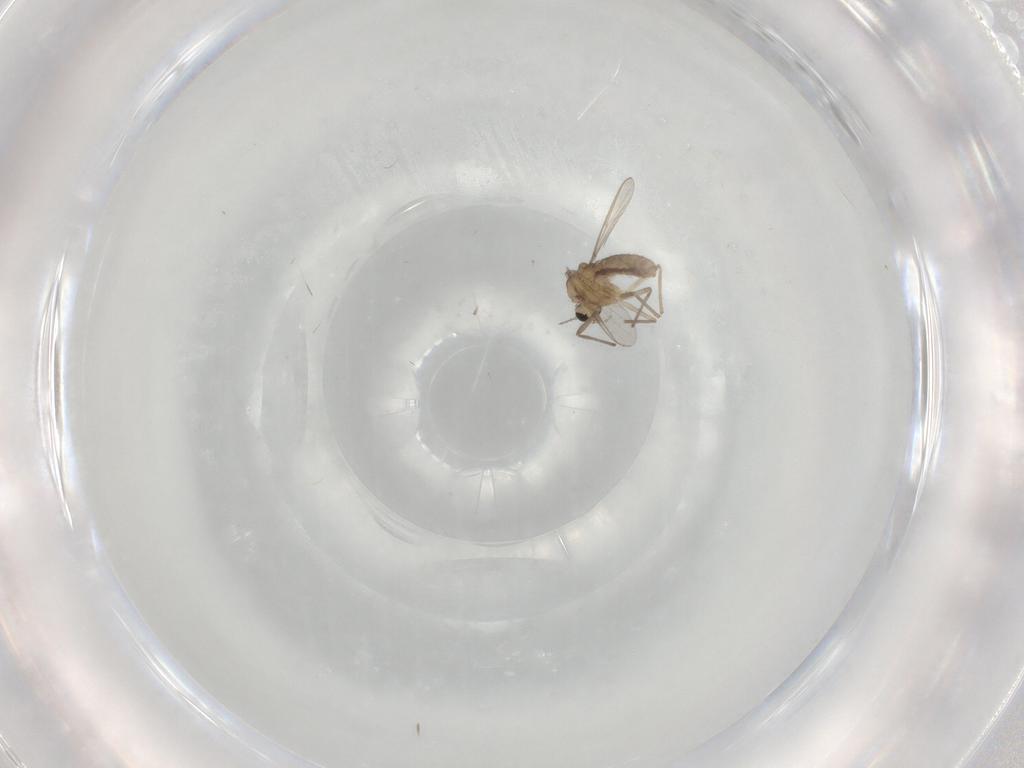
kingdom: Animalia
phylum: Arthropoda
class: Insecta
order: Diptera
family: Chironomidae
